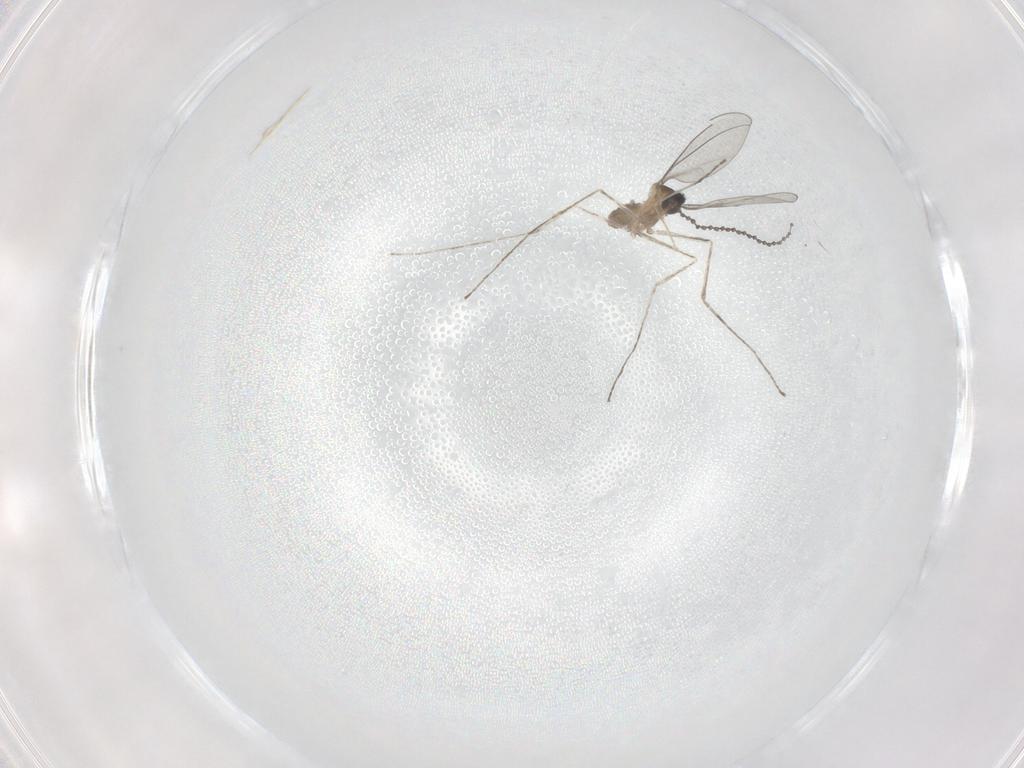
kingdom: Animalia
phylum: Arthropoda
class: Insecta
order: Diptera
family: Cecidomyiidae
